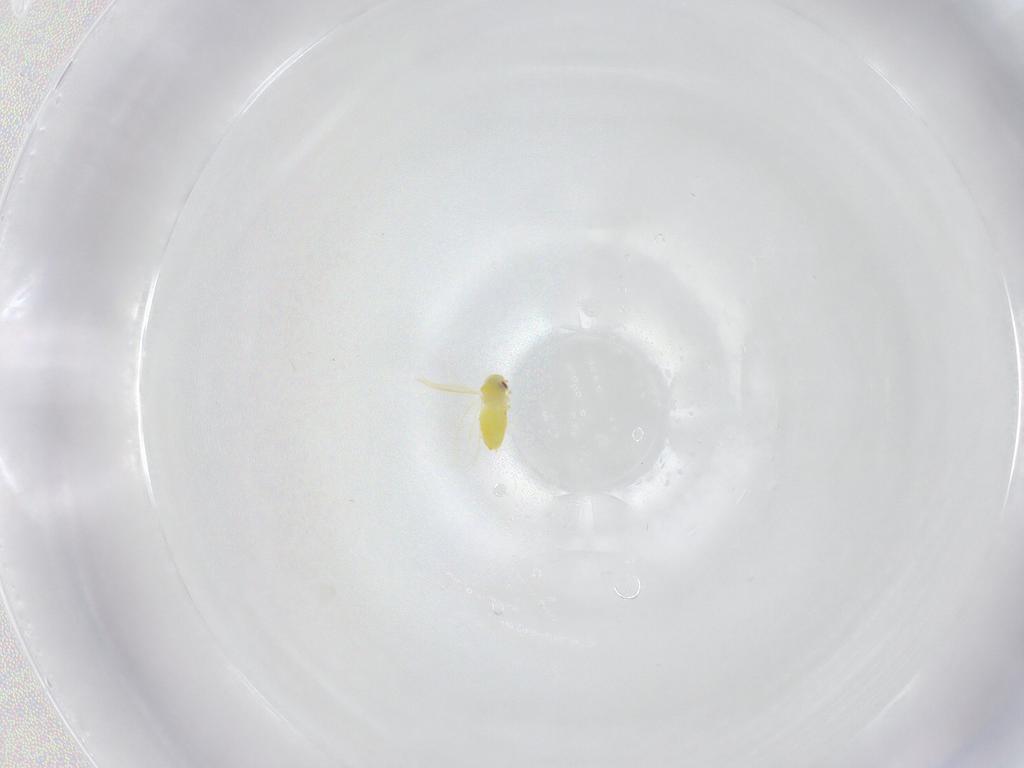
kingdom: Animalia
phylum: Arthropoda
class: Insecta
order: Hemiptera
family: Aleyrodidae
